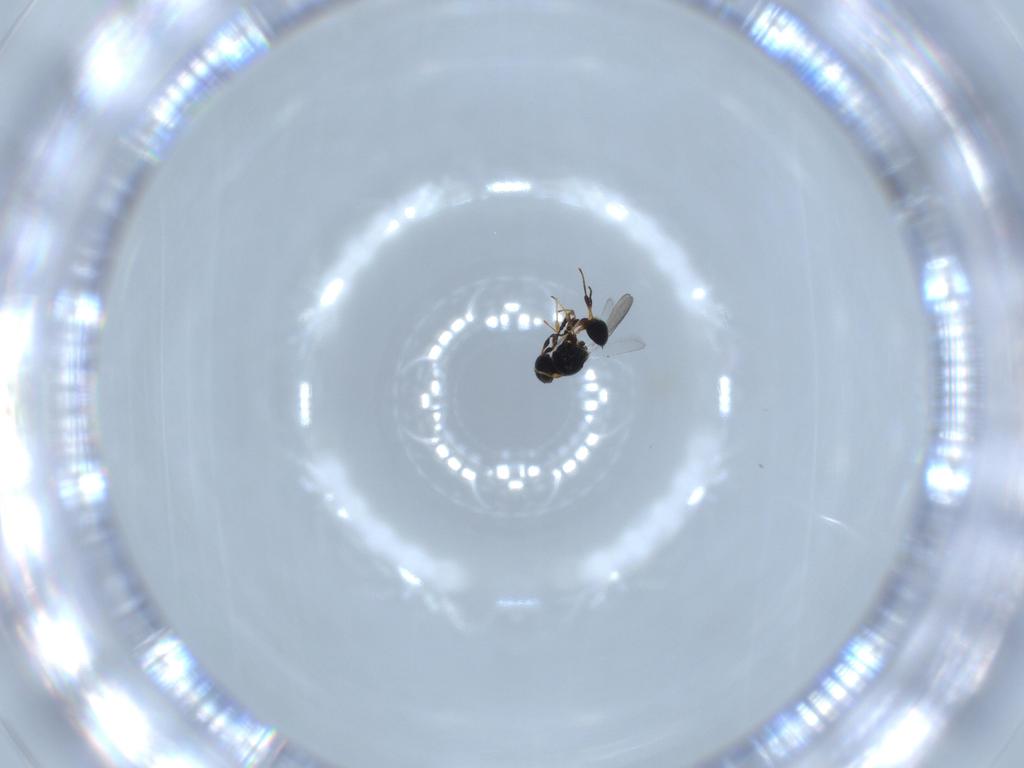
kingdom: Animalia
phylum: Arthropoda
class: Insecta
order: Hymenoptera
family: Platygastridae
